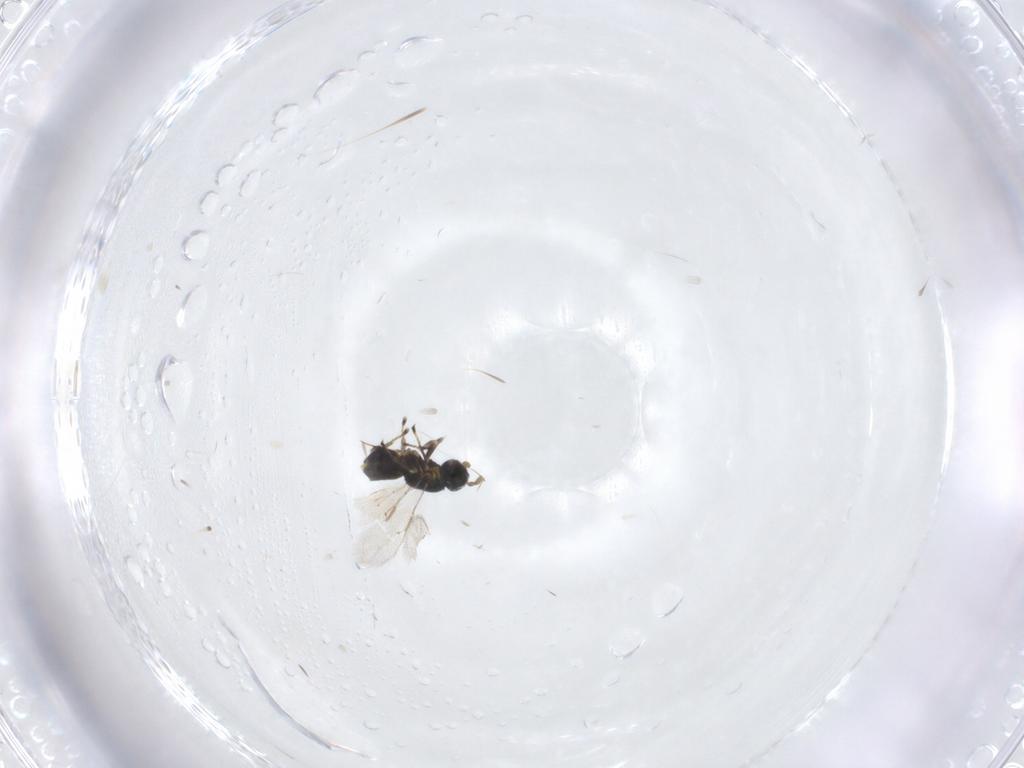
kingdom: Animalia
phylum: Arthropoda
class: Insecta
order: Hymenoptera
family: Eulophidae
